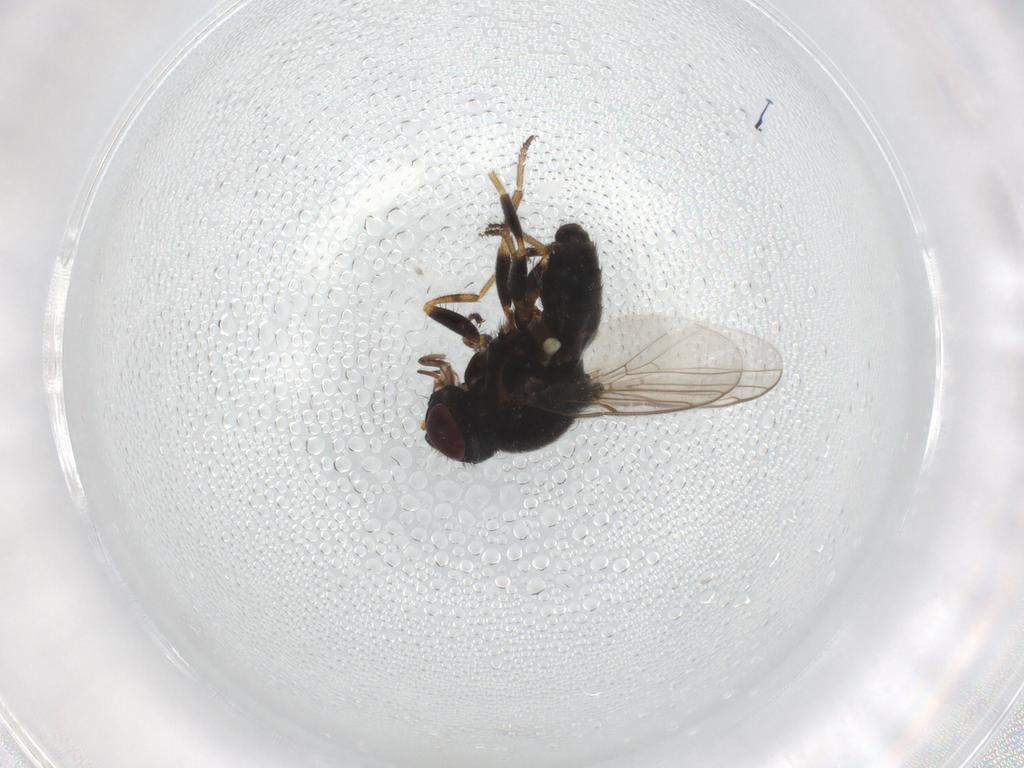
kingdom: Animalia
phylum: Arthropoda
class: Insecta
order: Diptera
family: Chloropidae
